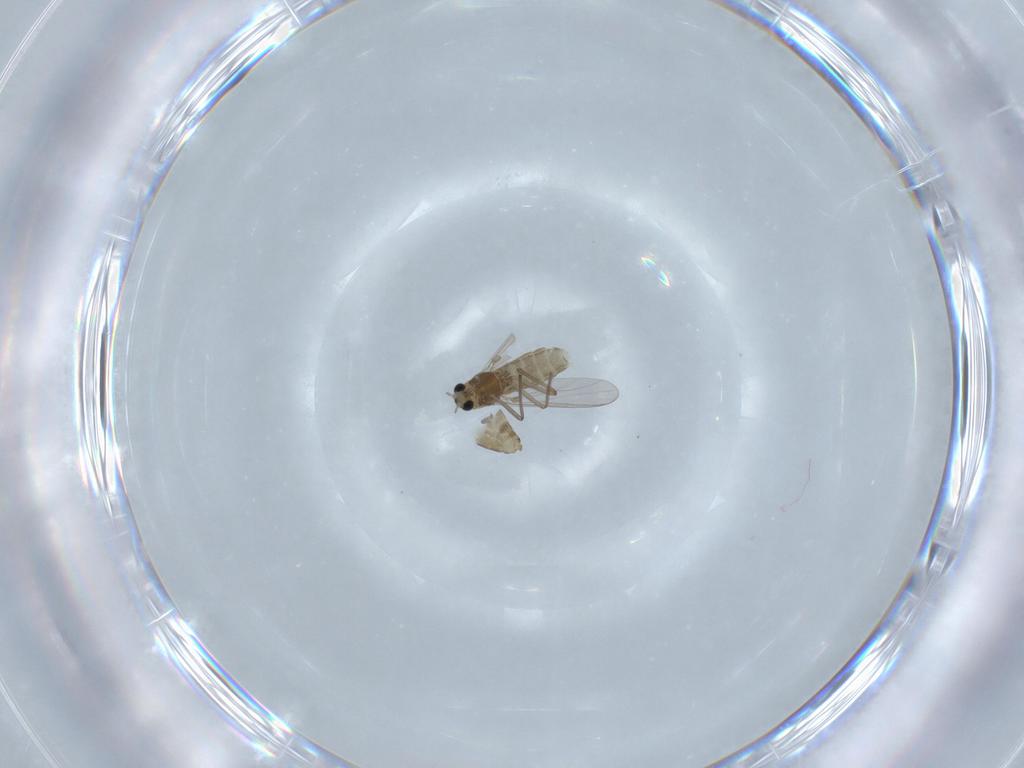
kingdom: Animalia
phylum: Arthropoda
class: Insecta
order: Diptera
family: Chironomidae
